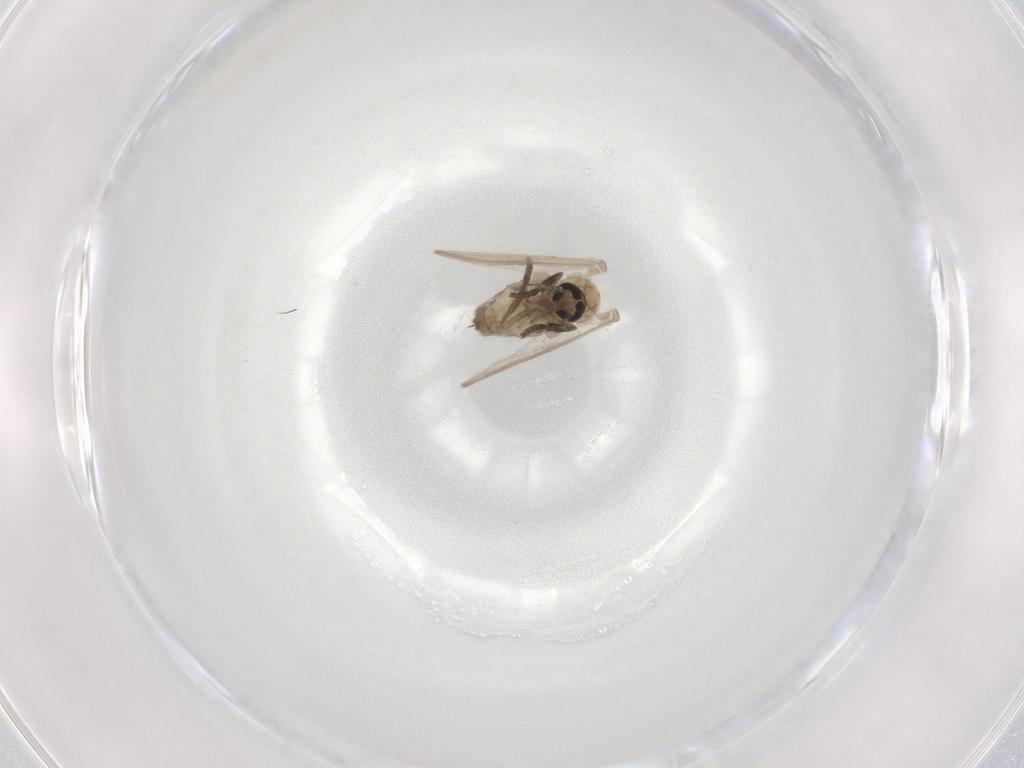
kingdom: Animalia
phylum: Arthropoda
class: Insecta
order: Diptera
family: Psychodidae
